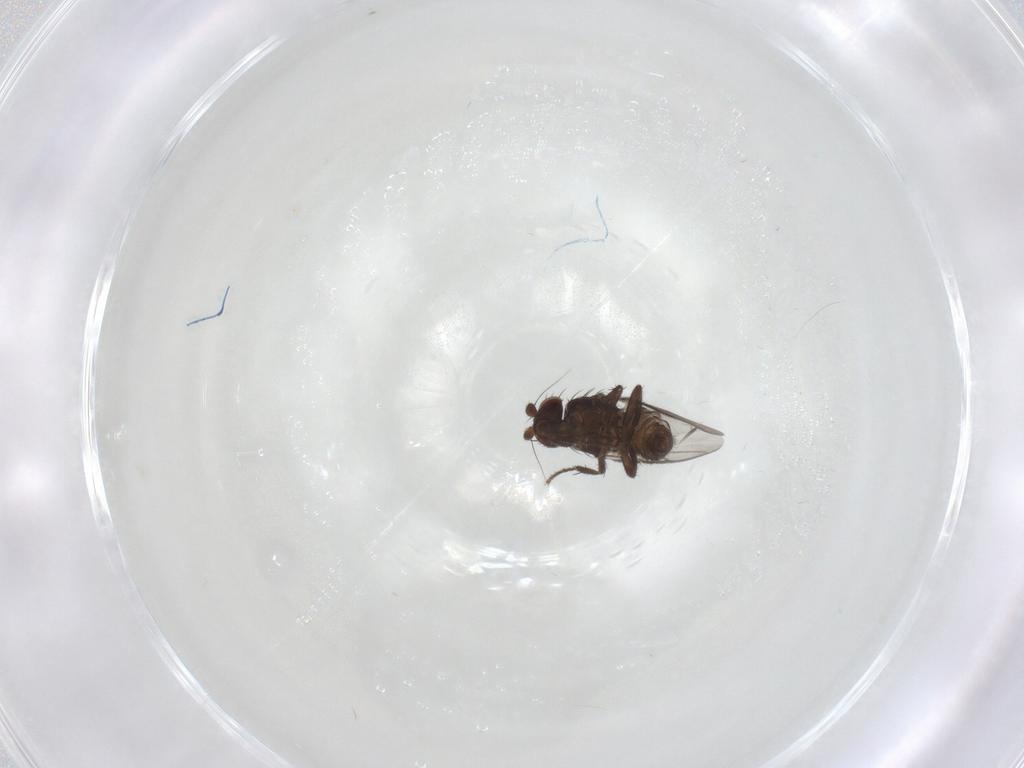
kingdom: Animalia
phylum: Arthropoda
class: Insecta
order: Diptera
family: Sphaeroceridae
